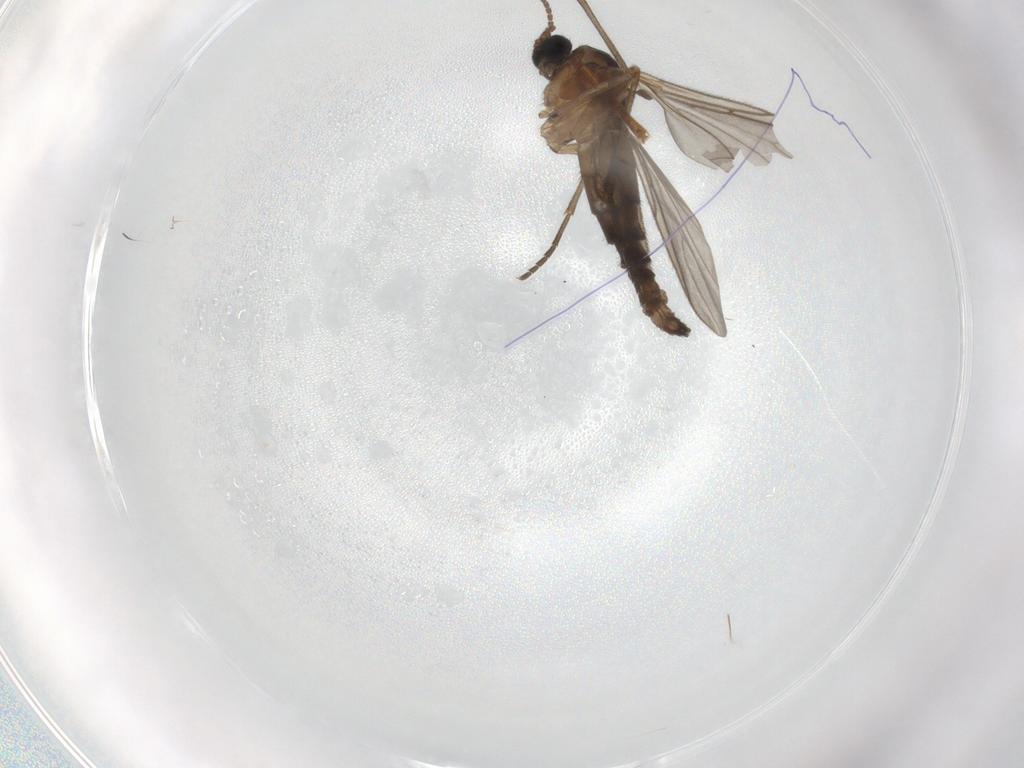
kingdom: Animalia
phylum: Arthropoda
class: Insecta
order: Diptera
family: Sciaridae
